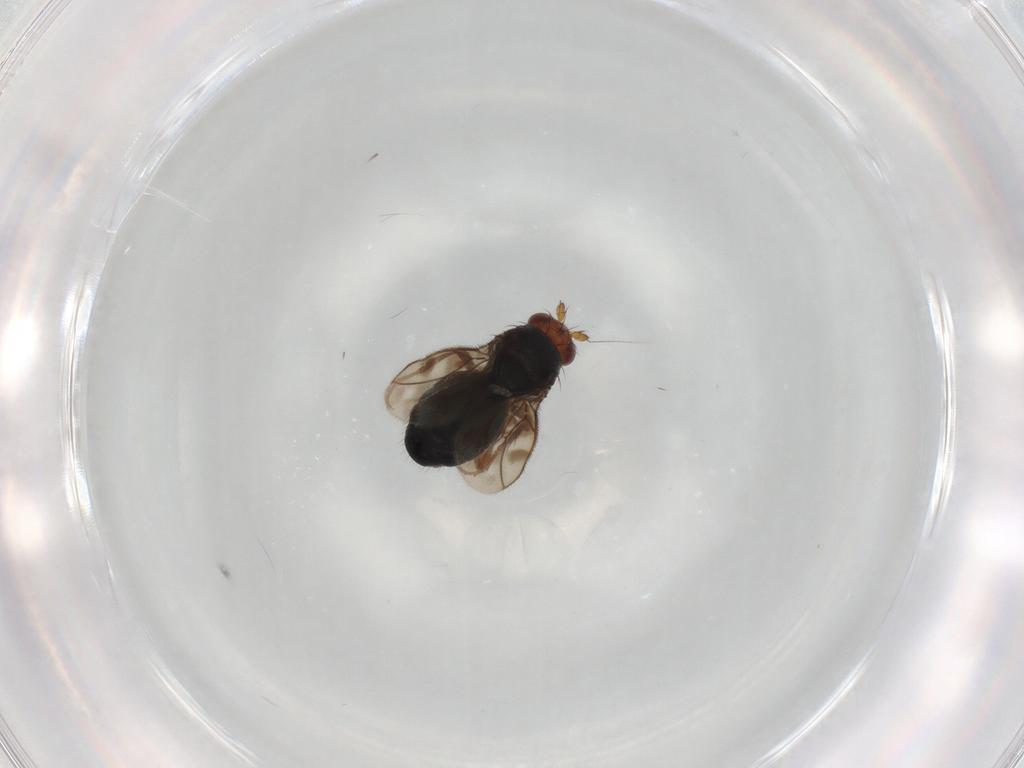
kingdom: Animalia
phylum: Arthropoda
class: Insecta
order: Diptera
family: Sciaridae
